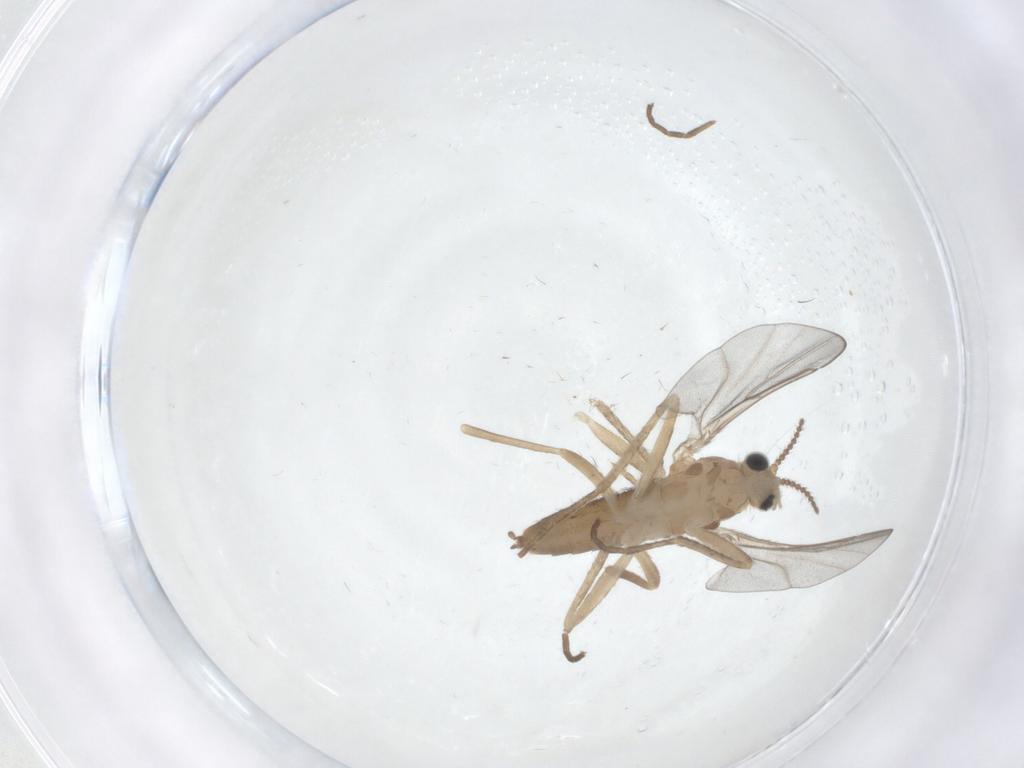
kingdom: Animalia
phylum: Arthropoda
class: Insecta
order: Diptera
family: Cecidomyiidae
